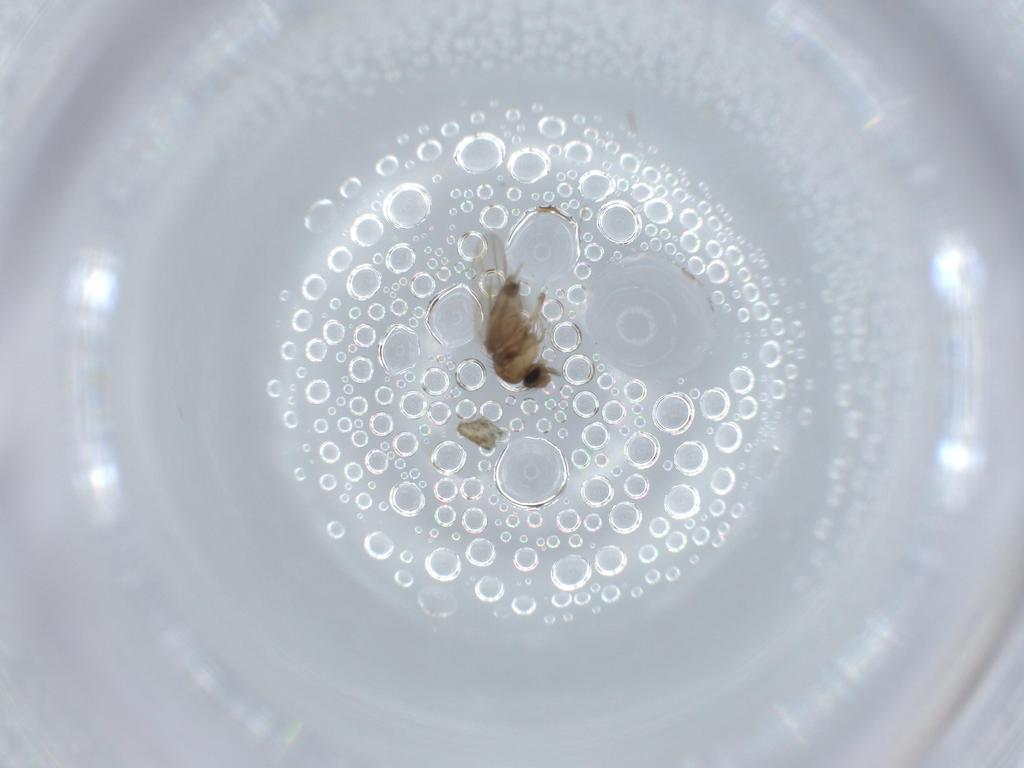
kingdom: Animalia
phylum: Arthropoda
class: Insecta
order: Diptera
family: Phoridae
